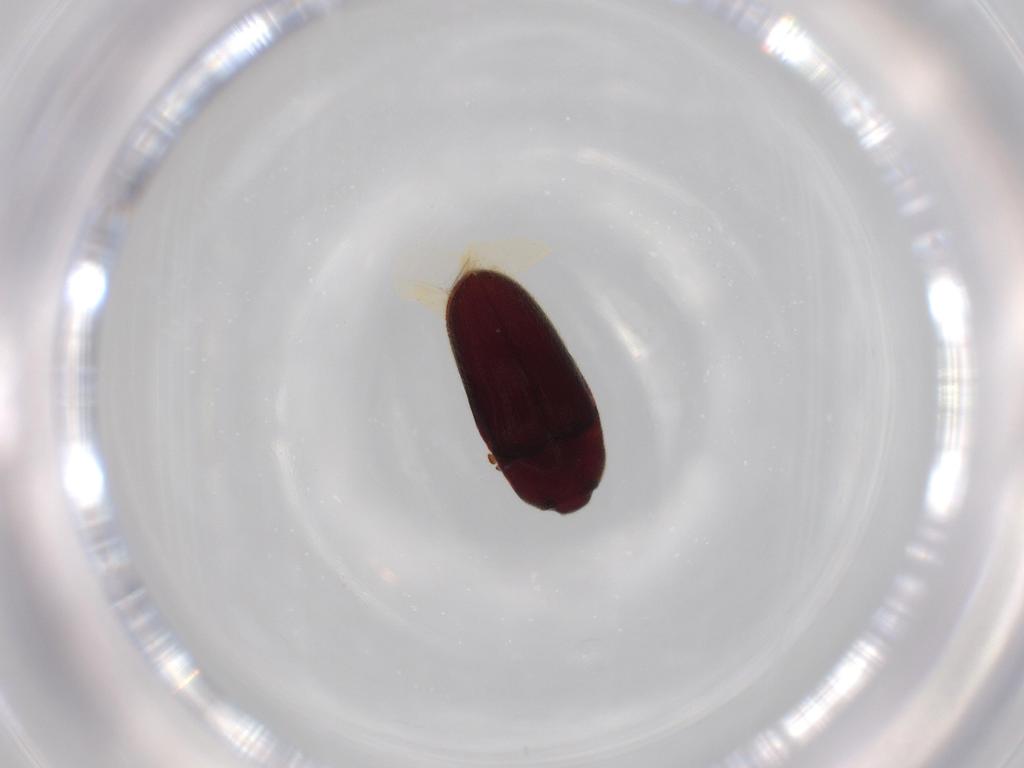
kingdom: Animalia
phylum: Arthropoda
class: Insecta
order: Coleoptera
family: Throscidae
